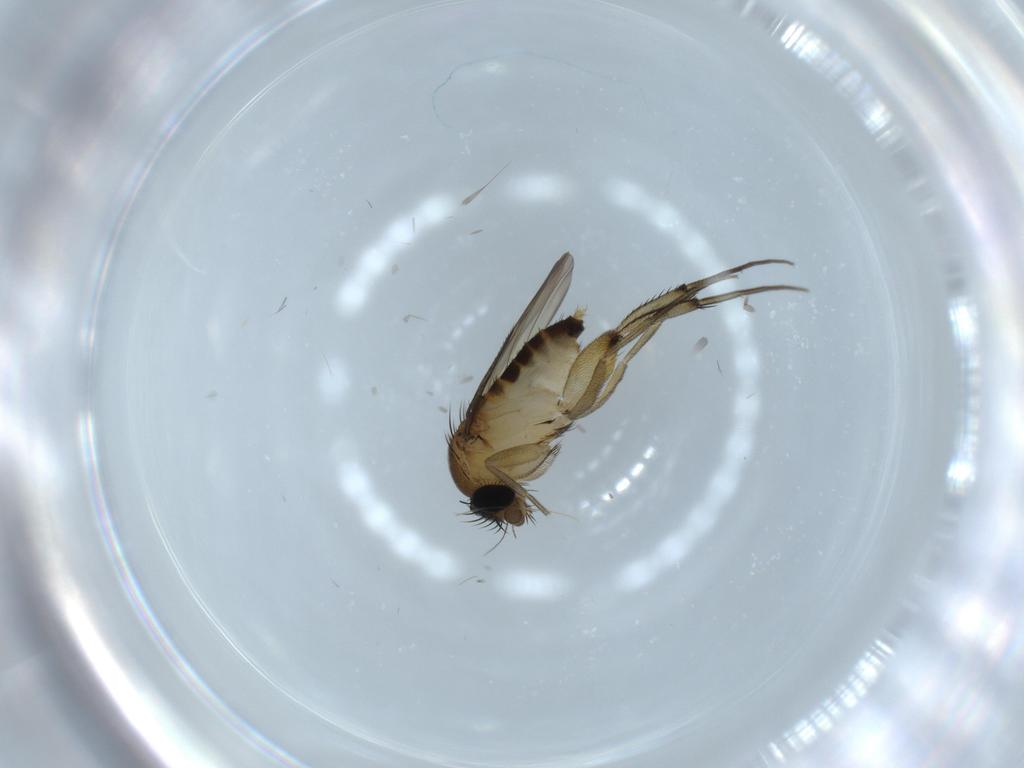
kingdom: Animalia
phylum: Arthropoda
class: Insecta
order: Diptera
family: Phoridae
